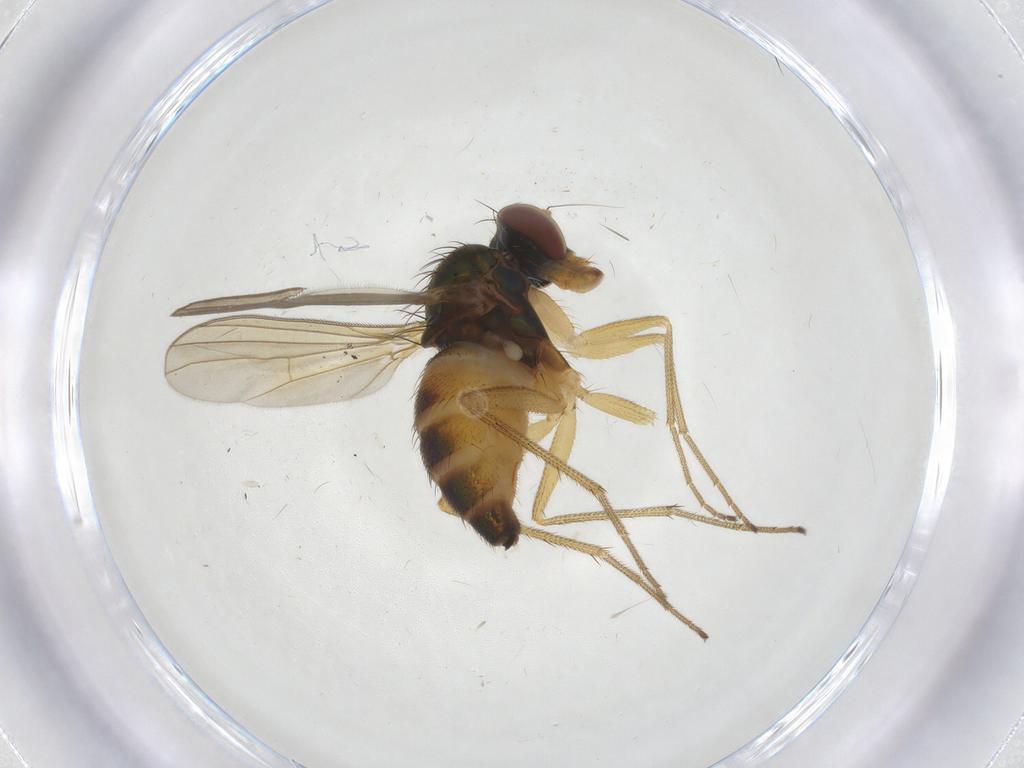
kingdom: Animalia
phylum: Arthropoda
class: Insecta
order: Diptera
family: Dolichopodidae
